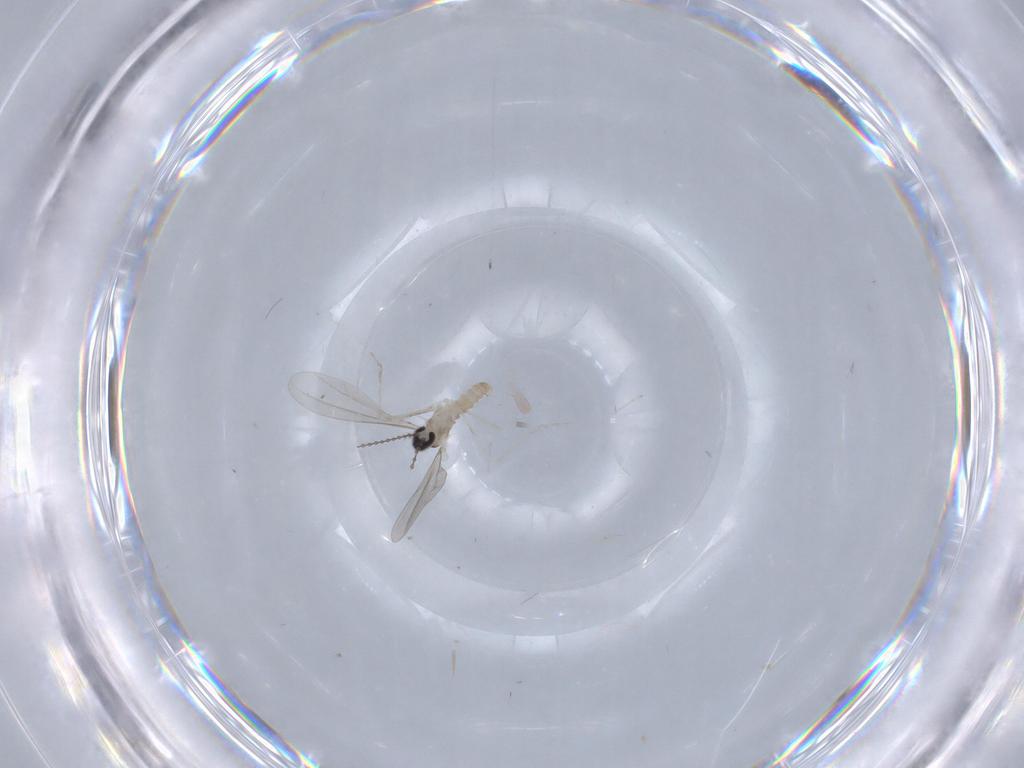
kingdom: Animalia
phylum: Arthropoda
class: Insecta
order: Diptera
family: Cecidomyiidae
